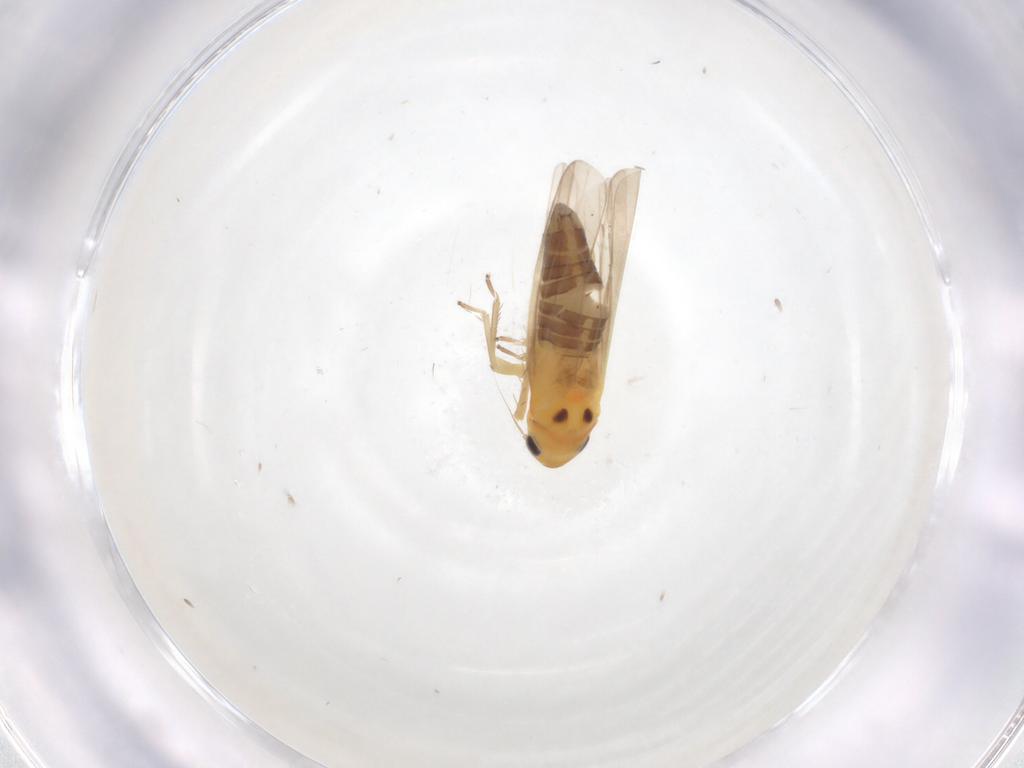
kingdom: Animalia
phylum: Arthropoda
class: Insecta
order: Hemiptera
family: Cicadellidae
